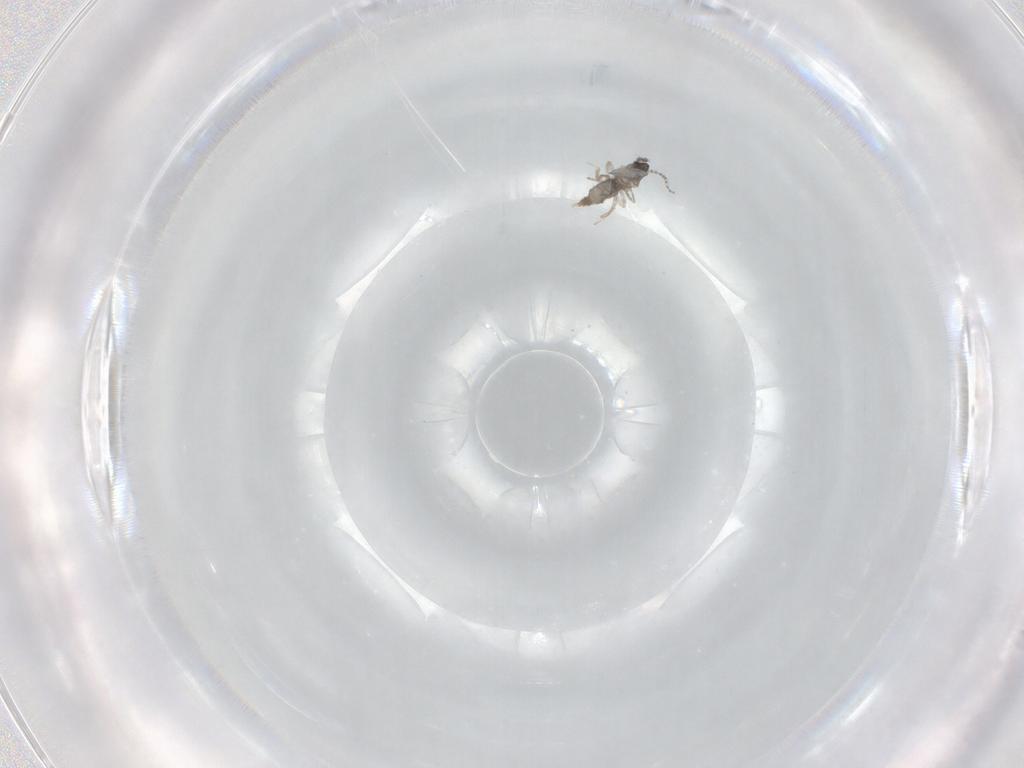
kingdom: Animalia
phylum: Arthropoda
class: Insecta
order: Diptera
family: Cecidomyiidae
